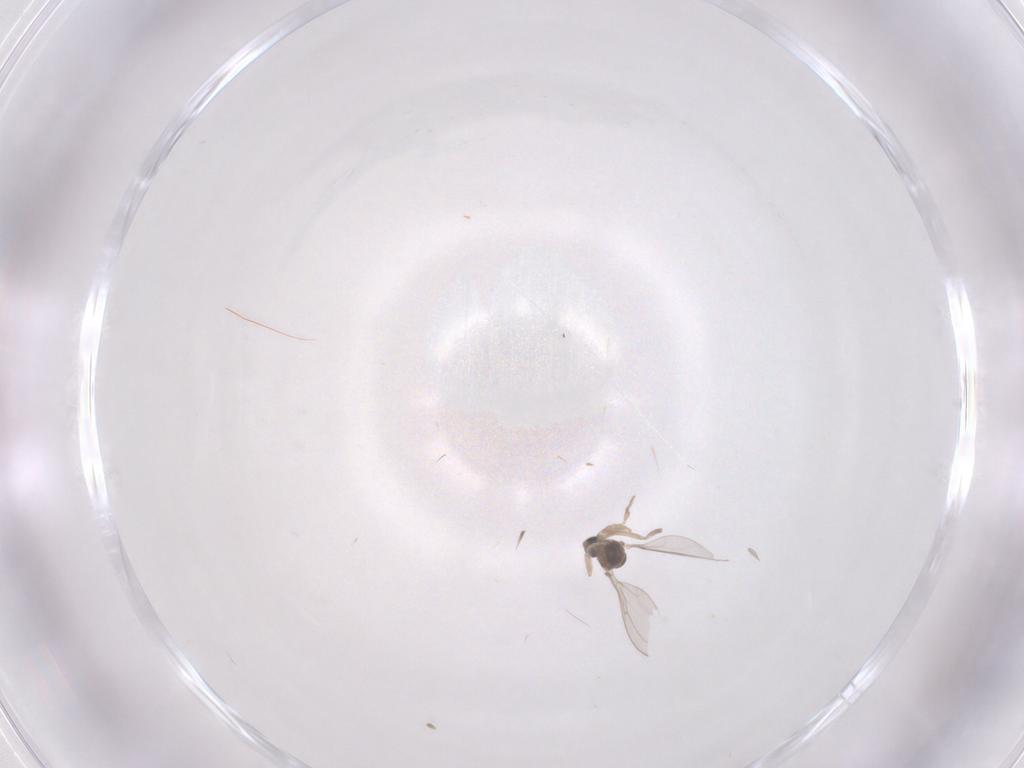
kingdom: Animalia
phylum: Arthropoda
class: Insecta
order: Diptera
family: Cecidomyiidae
